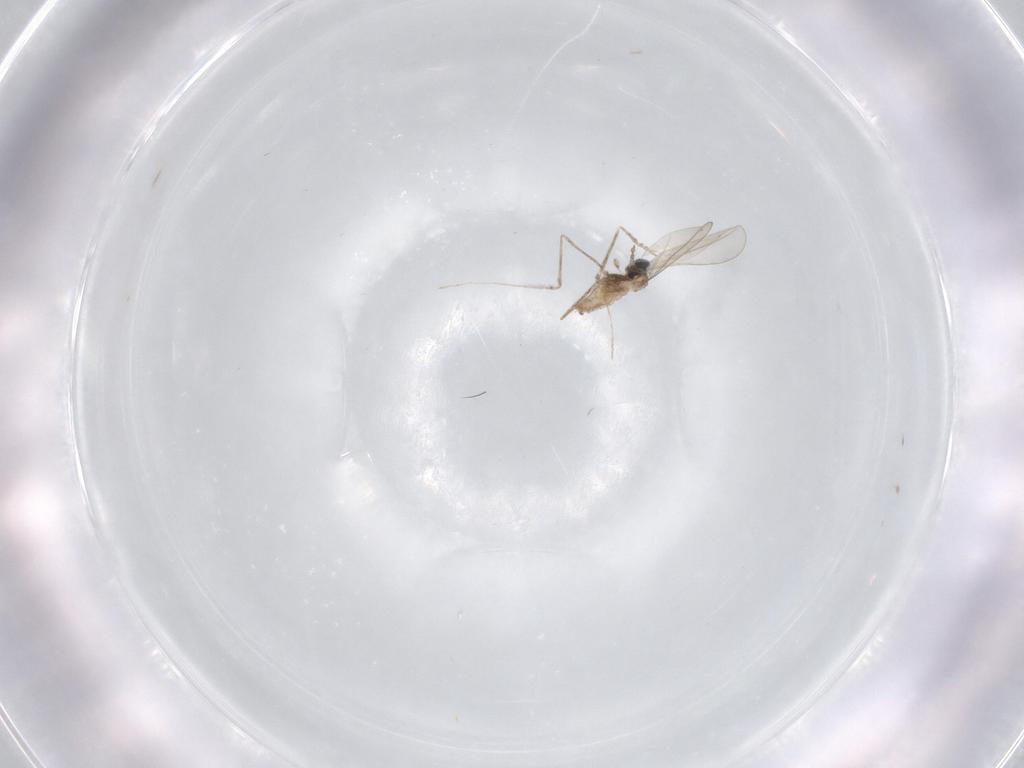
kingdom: Animalia
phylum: Arthropoda
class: Insecta
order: Diptera
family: Cecidomyiidae
